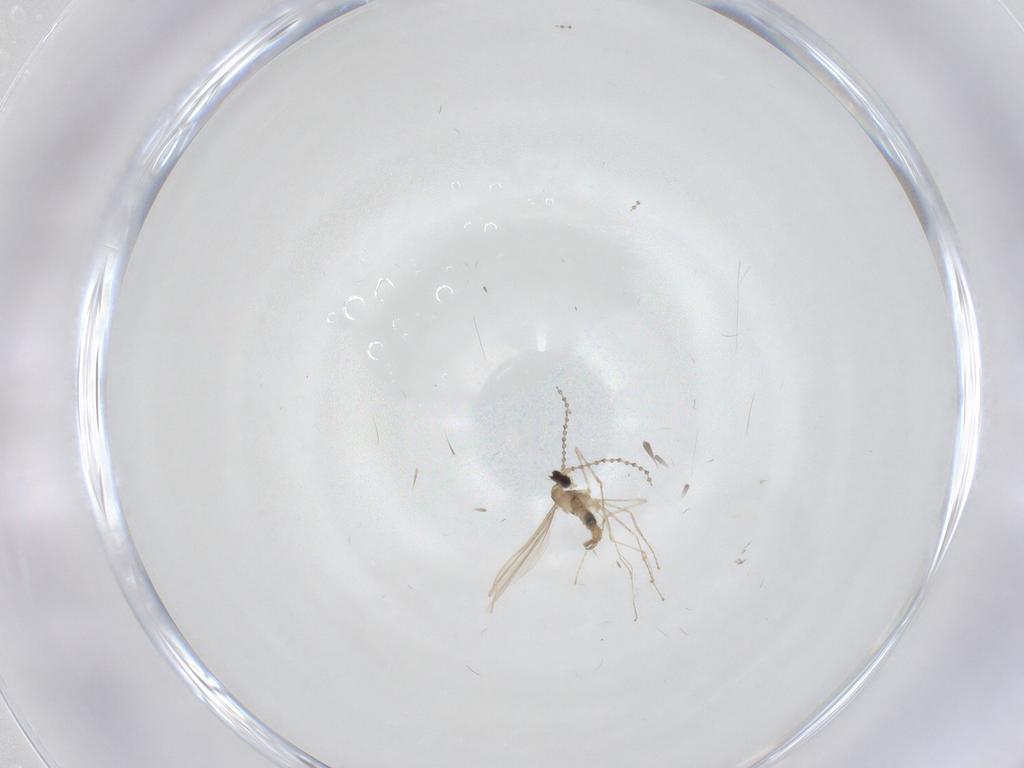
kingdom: Animalia
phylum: Arthropoda
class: Insecta
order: Diptera
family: Cecidomyiidae
